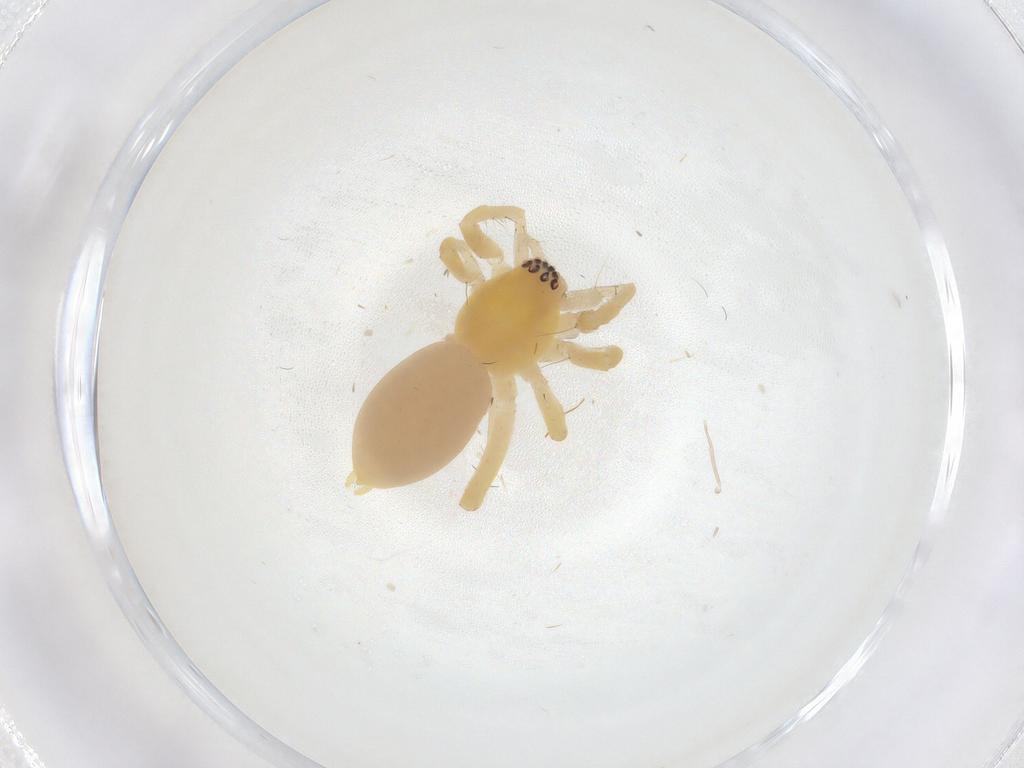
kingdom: Animalia
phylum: Arthropoda
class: Arachnida
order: Araneae
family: Anyphaenidae
